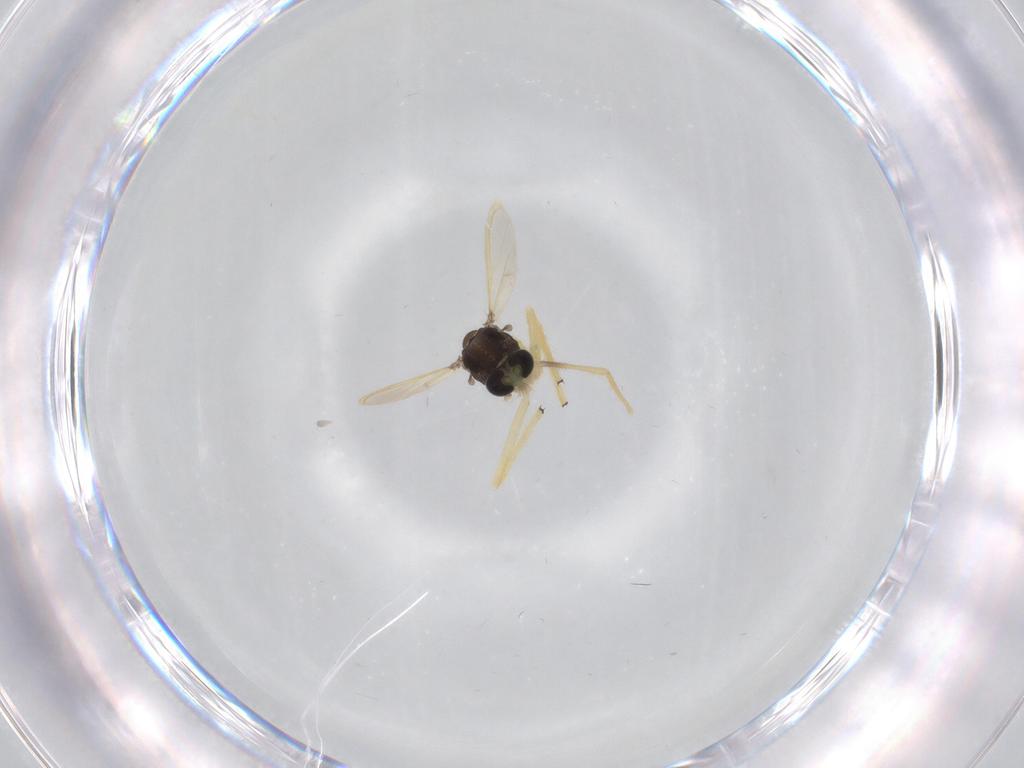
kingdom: Animalia
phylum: Arthropoda
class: Insecta
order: Diptera
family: Chironomidae
